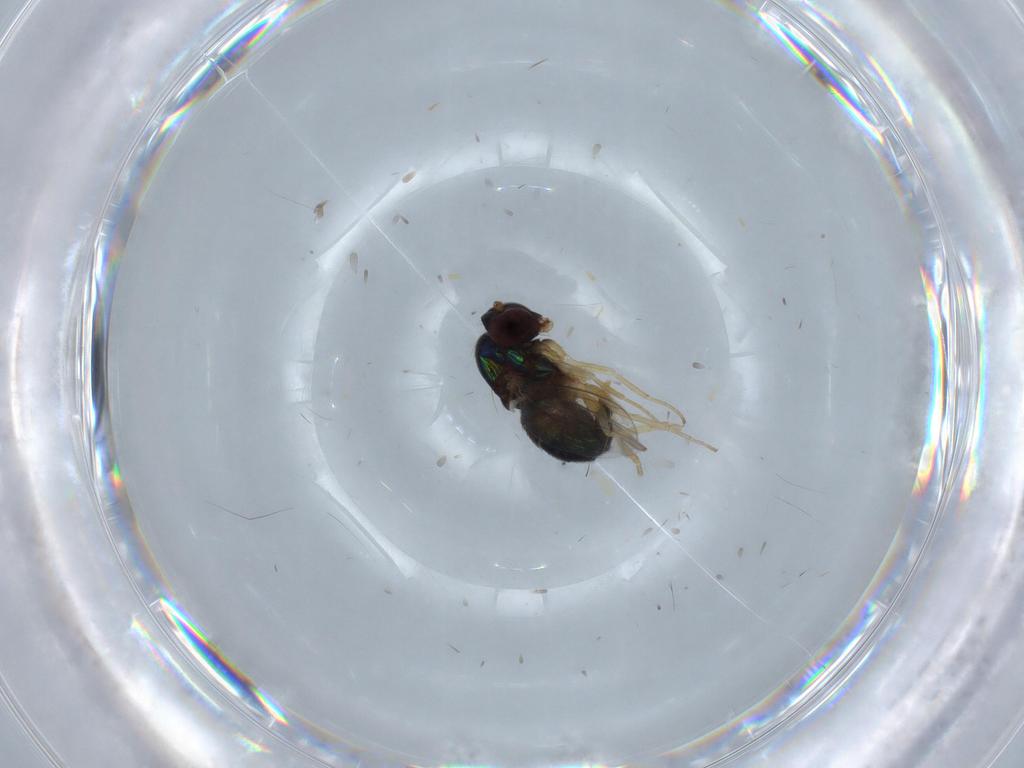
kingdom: Animalia
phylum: Arthropoda
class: Insecta
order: Diptera
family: Dolichopodidae
